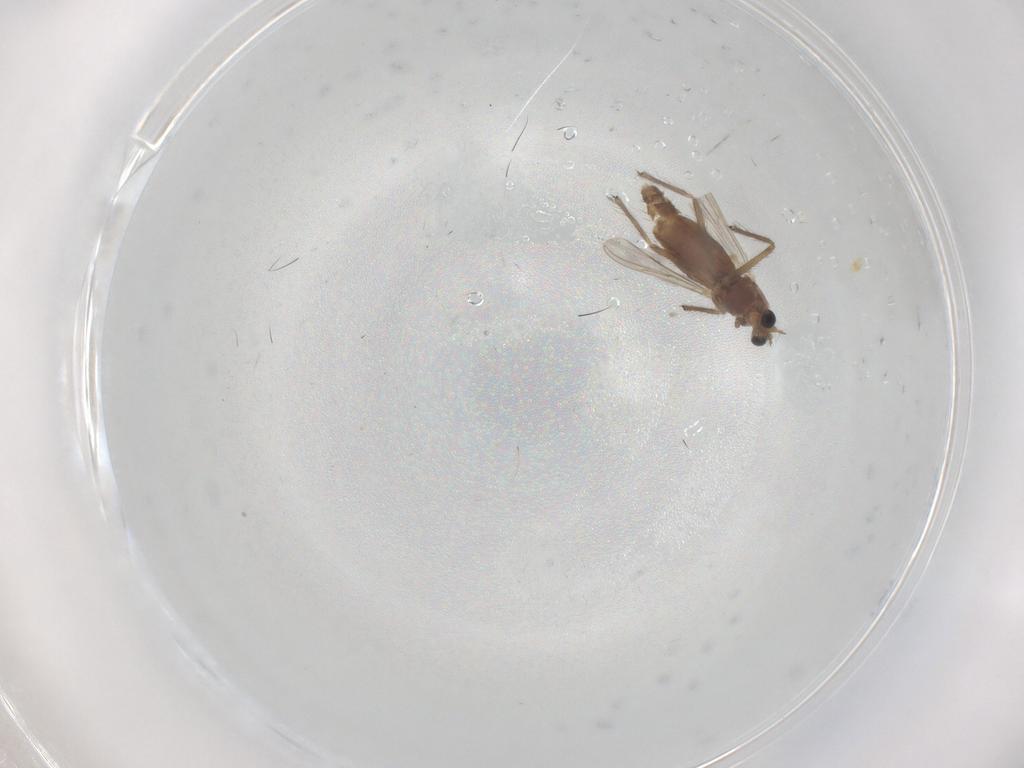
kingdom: Animalia
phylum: Arthropoda
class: Insecta
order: Diptera
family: Chironomidae
